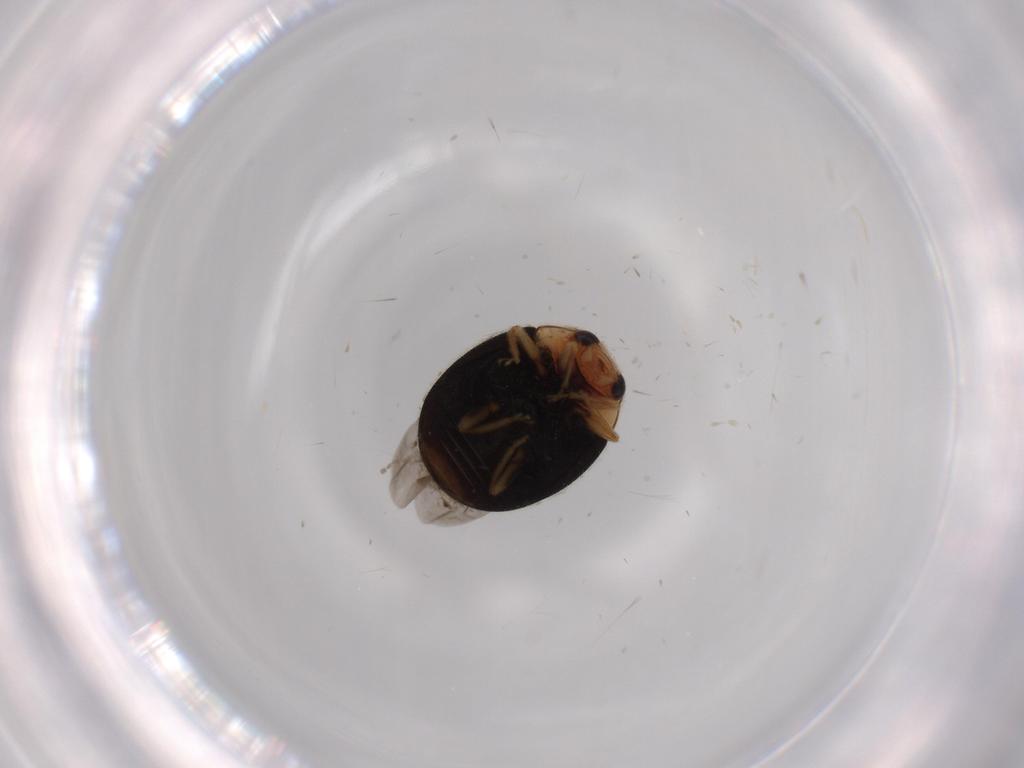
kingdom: Animalia
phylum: Arthropoda
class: Insecta
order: Coleoptera
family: Coccinellidae
